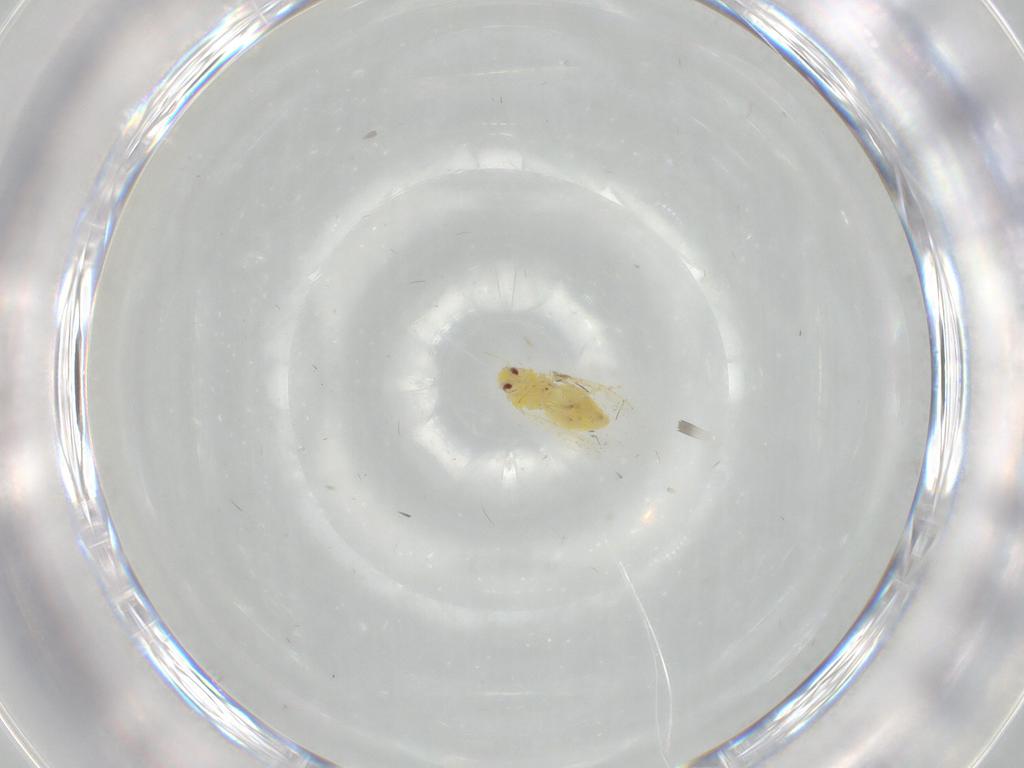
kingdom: Animalia
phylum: Arthropoda
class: Insecta
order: Hemiptera
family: Aleyrodidae
